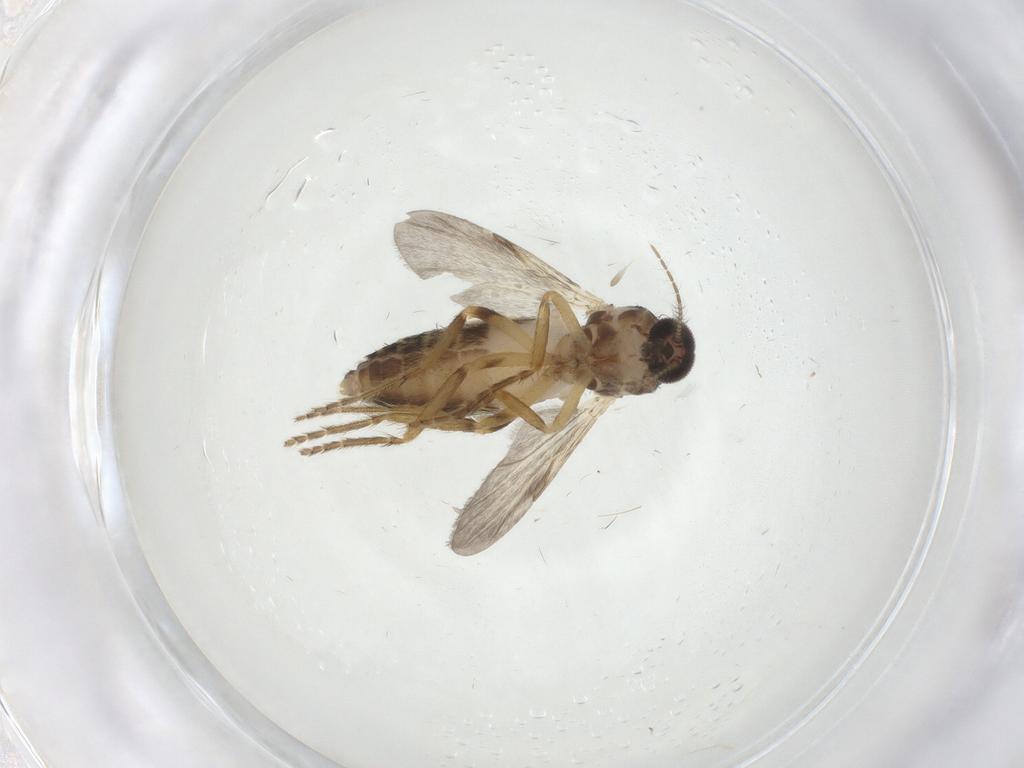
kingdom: Animalia
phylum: Arthropoda
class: Insecta
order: Diptera
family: Ceratopogonidae
